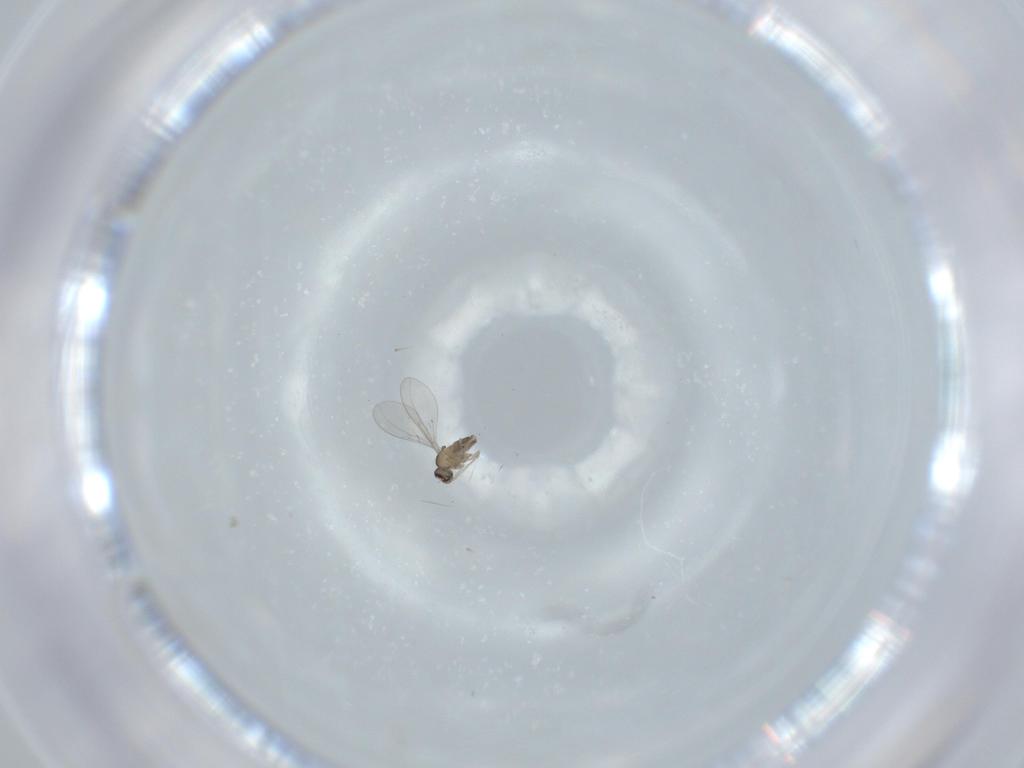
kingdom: Animalia
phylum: Arthropoda
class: Insecta
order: Diptera
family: Cecidomyiidae
